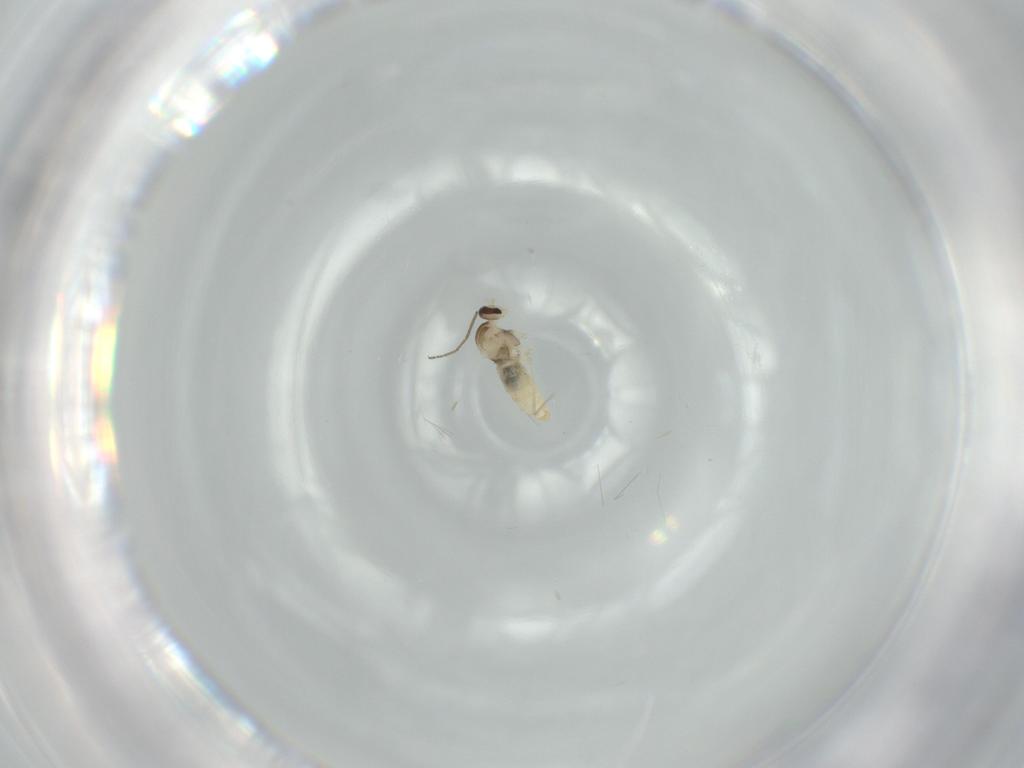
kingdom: Animalia
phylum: Arthropoda
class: Insecta
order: Diptera
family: Cecidomyiidae
